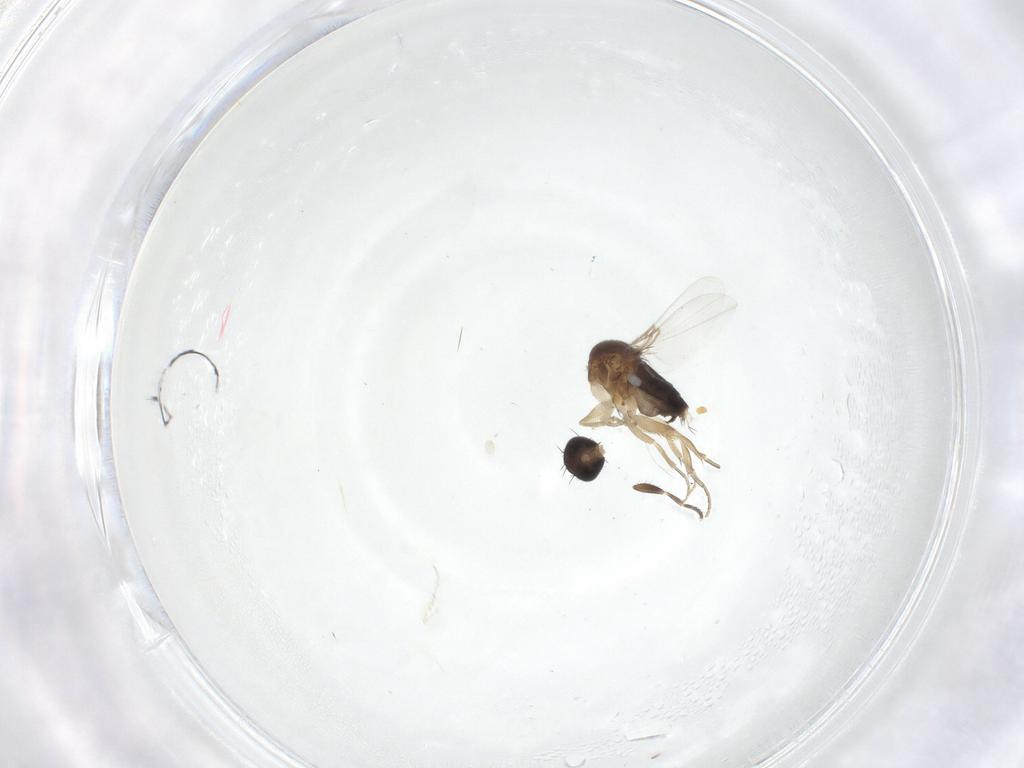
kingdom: Animalia
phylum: Arthropoda
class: Insecta
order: Diptera
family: Milichiidae
